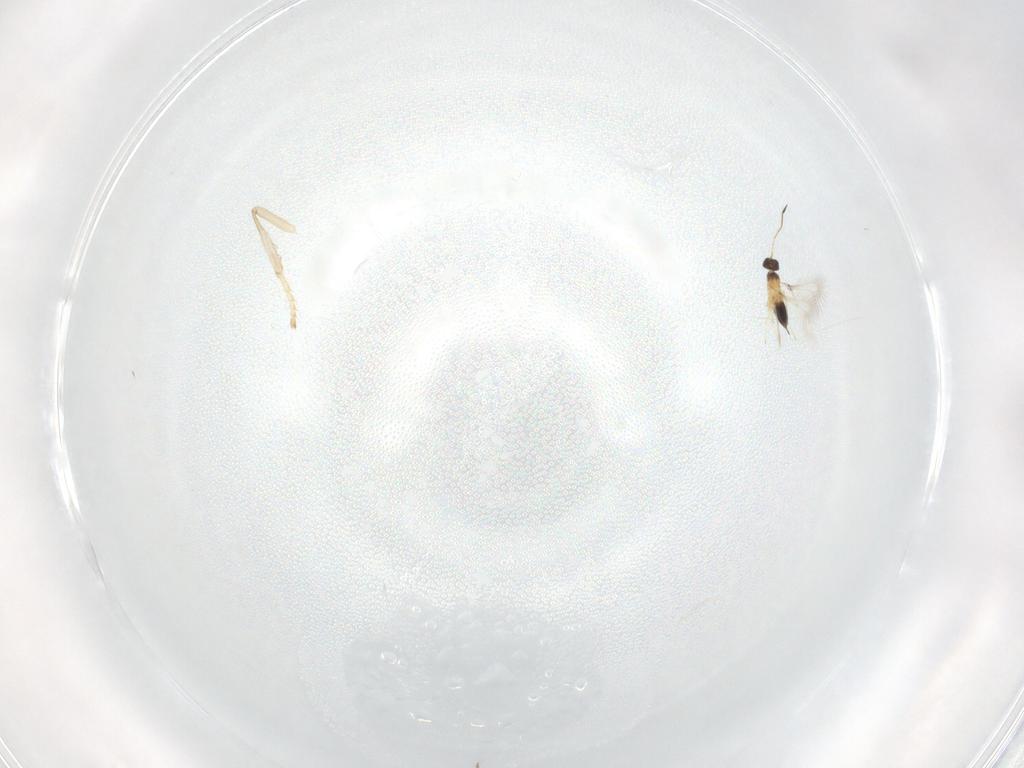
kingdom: Animalia
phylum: Arthropoda
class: Insecta
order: Hymenoptera
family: Mymaridae
